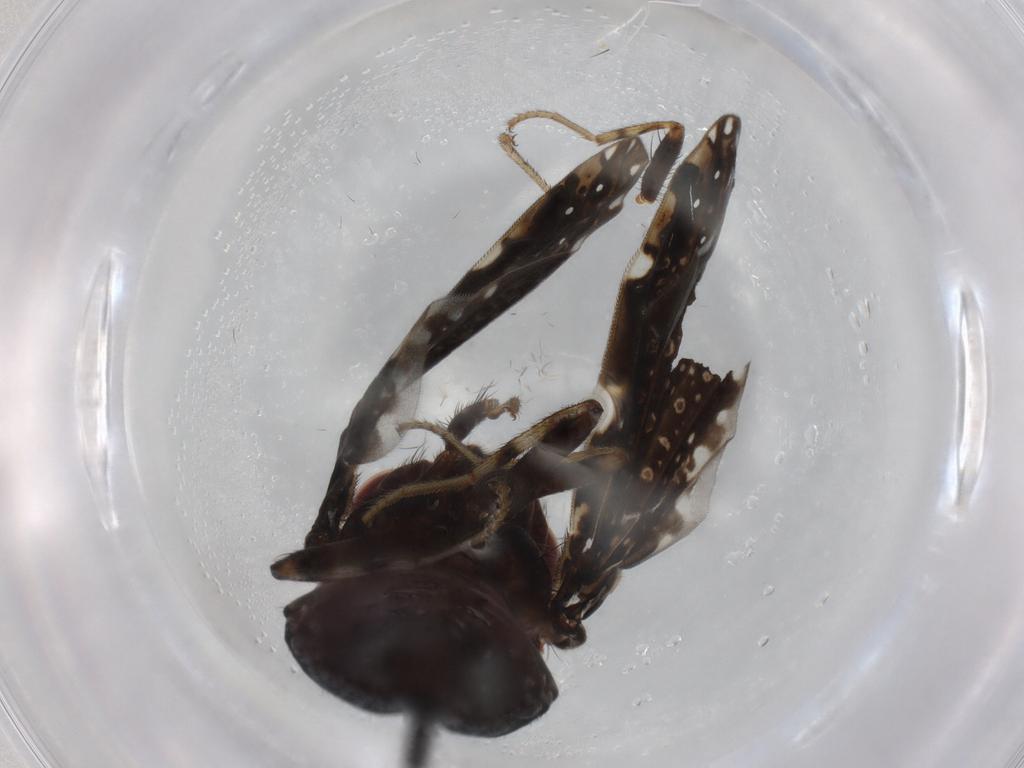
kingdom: Animalia
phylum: Arthropoda
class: Insecta
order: Diptera
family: Ulidiidae
